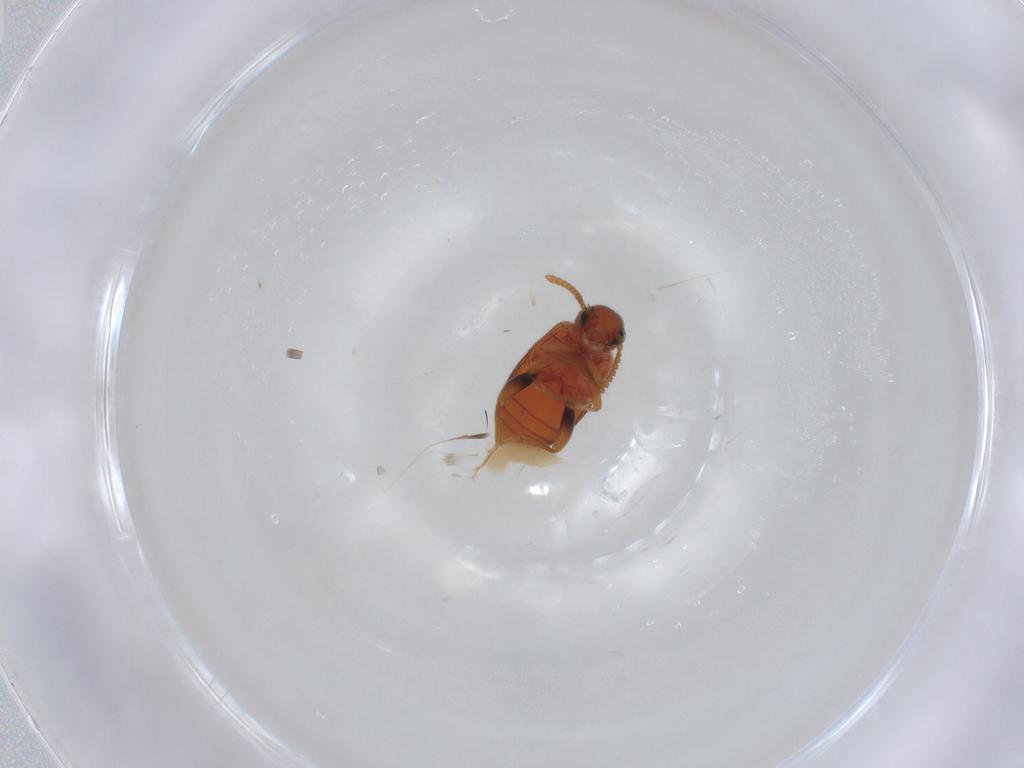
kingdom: Animalia
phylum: Arthropoda
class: Insecta
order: Coleoptera
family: Aderidae
